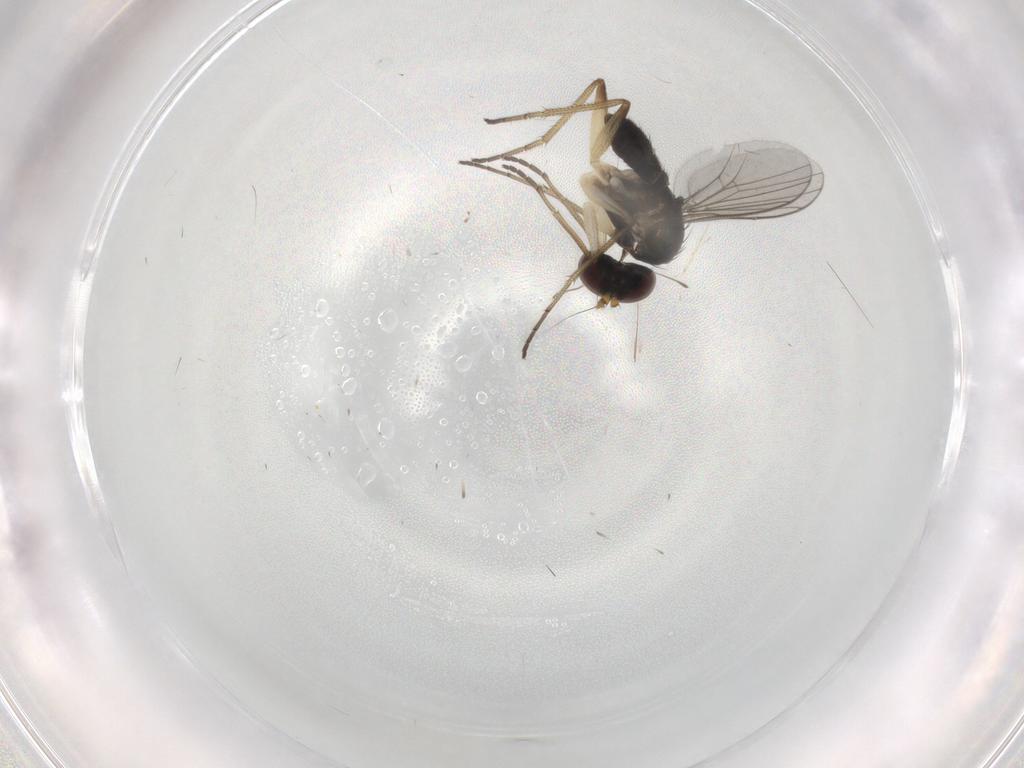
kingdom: Animalia
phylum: Arthropoda
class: Insecta
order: Diptera
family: Dolichopodidae
